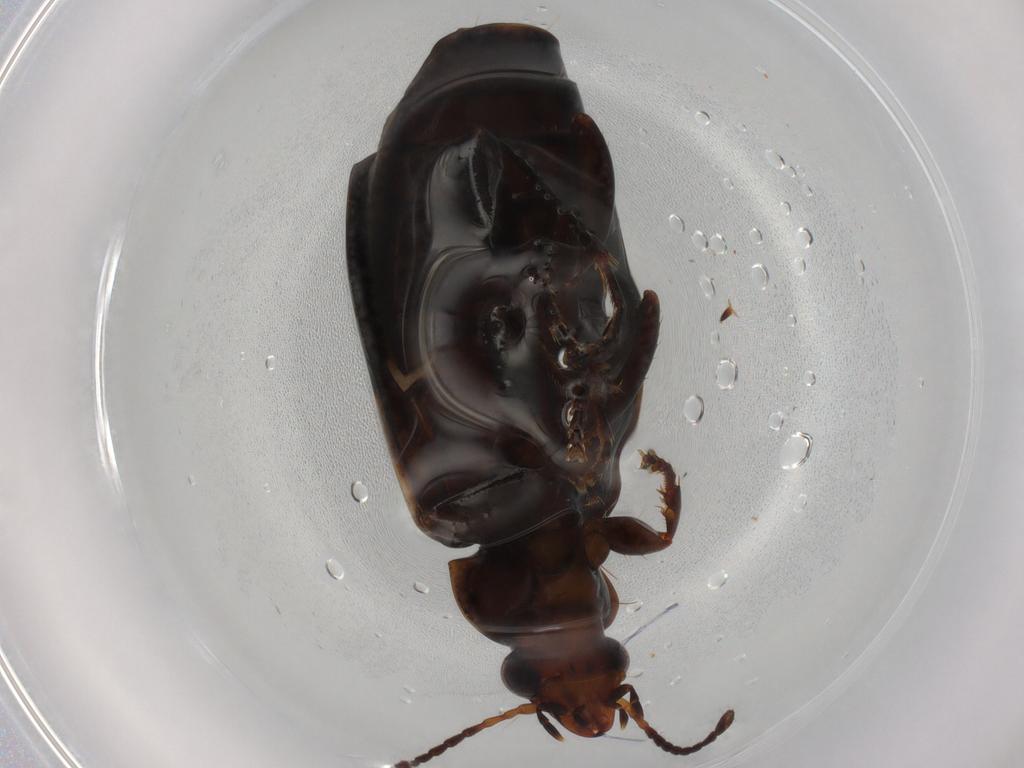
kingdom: Animalia
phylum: Arthropoda
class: Insecta
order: Coleoptera
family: Carabidae
